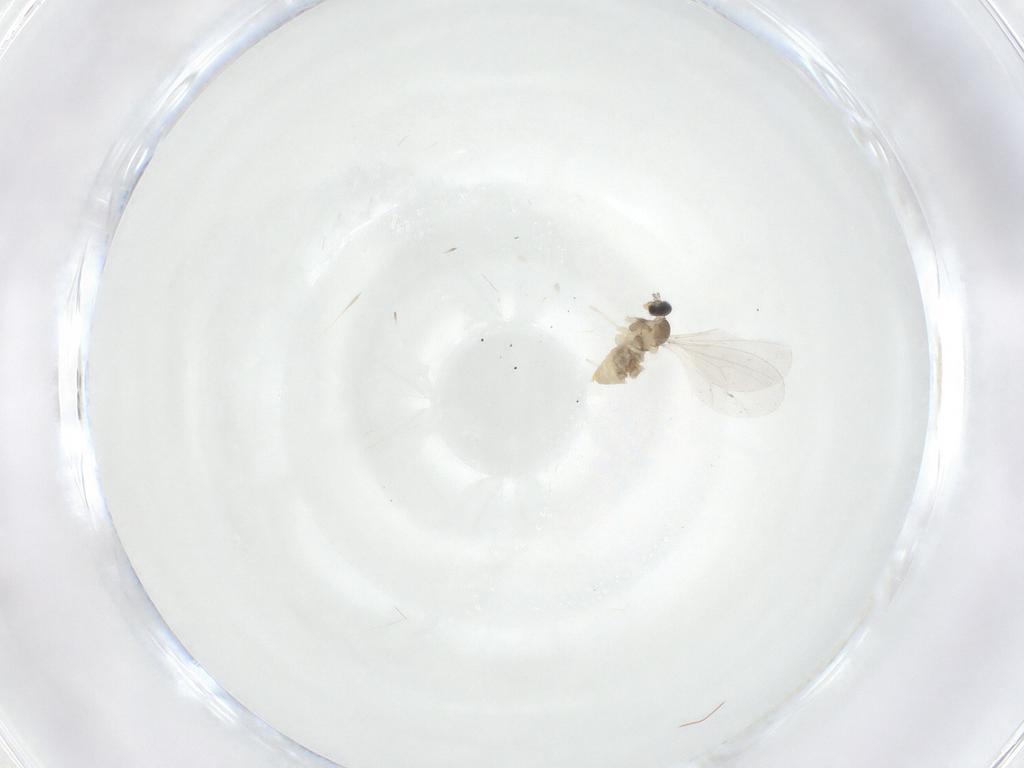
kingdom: Animalia
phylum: Arthropoda
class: Insecta
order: Diptera
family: Cecidomyiidae
